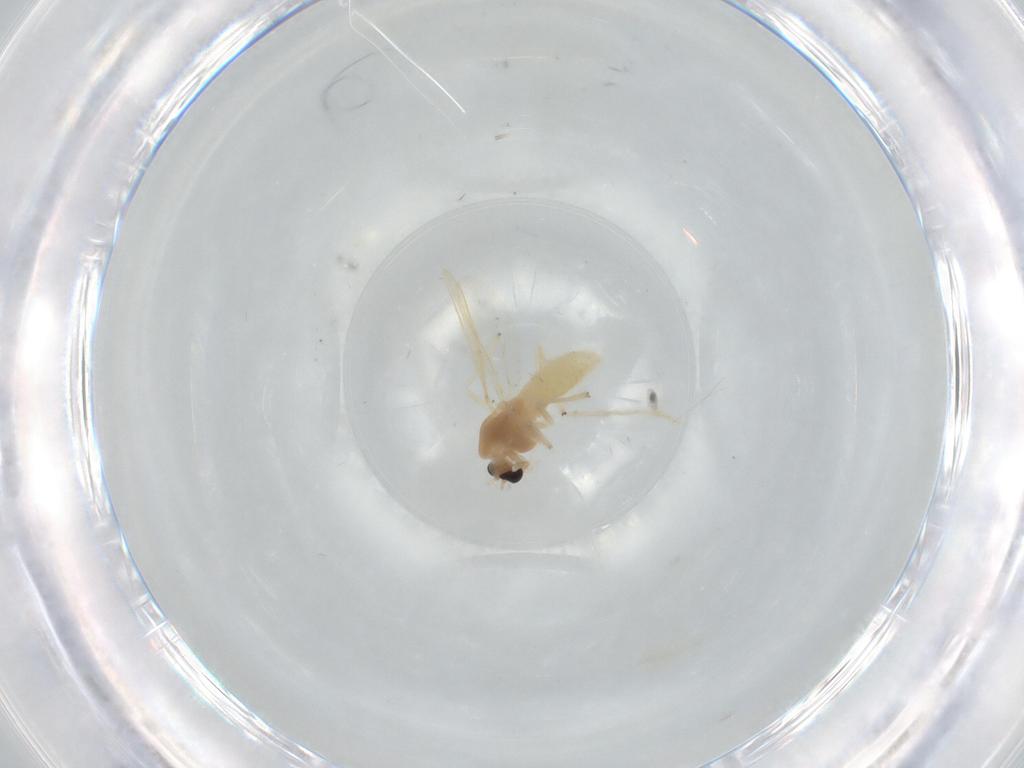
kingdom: Animalia
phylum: Arthropoda
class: Insecta
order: Diptera
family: Chironomidae
